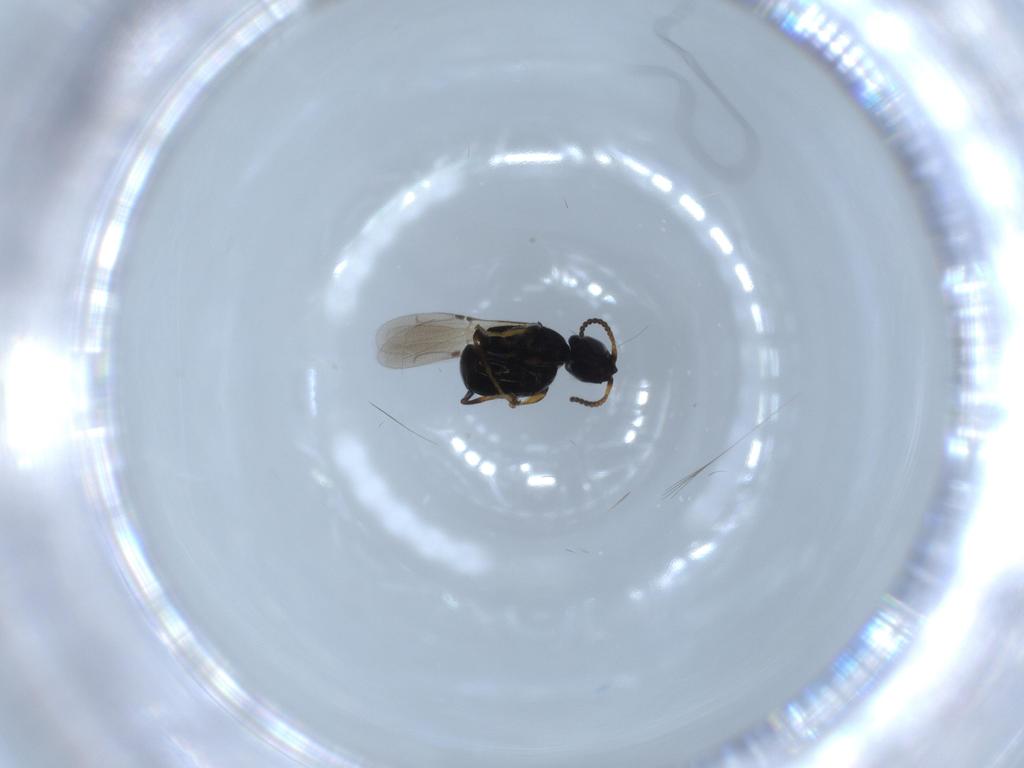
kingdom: Animalia
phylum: Arthropoda
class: Insecta
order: Hymenoptera
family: Bethylidae
